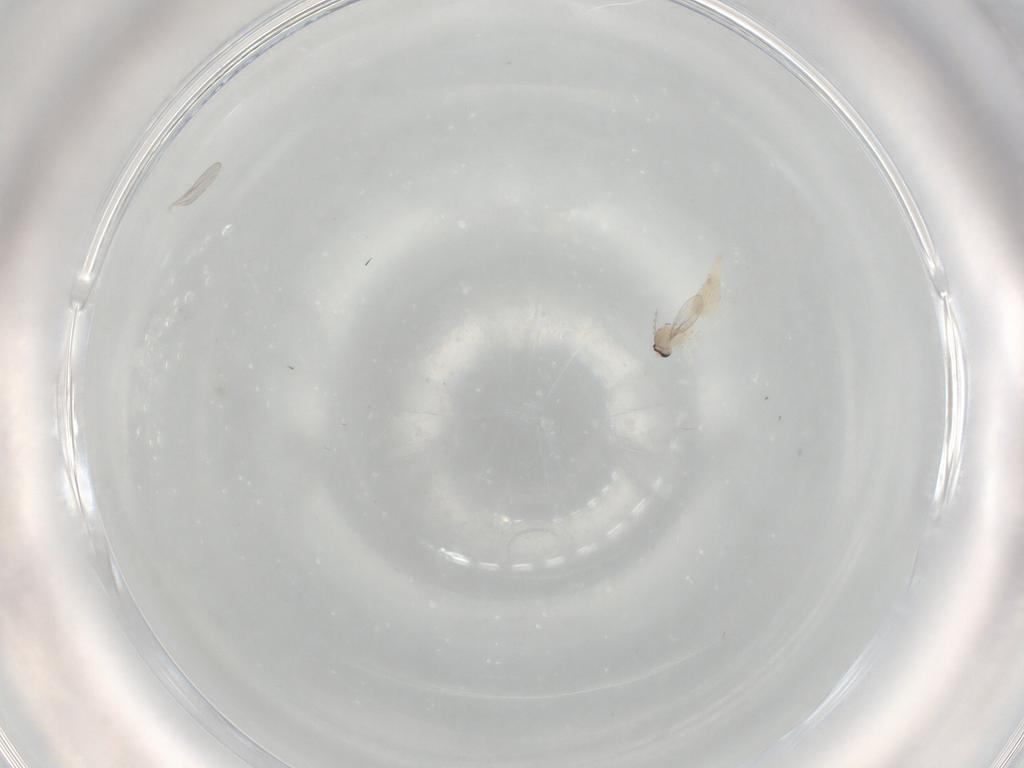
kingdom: Animalia
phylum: Arthropoda
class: Insecta
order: Diptera
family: Cecidomyiidae
